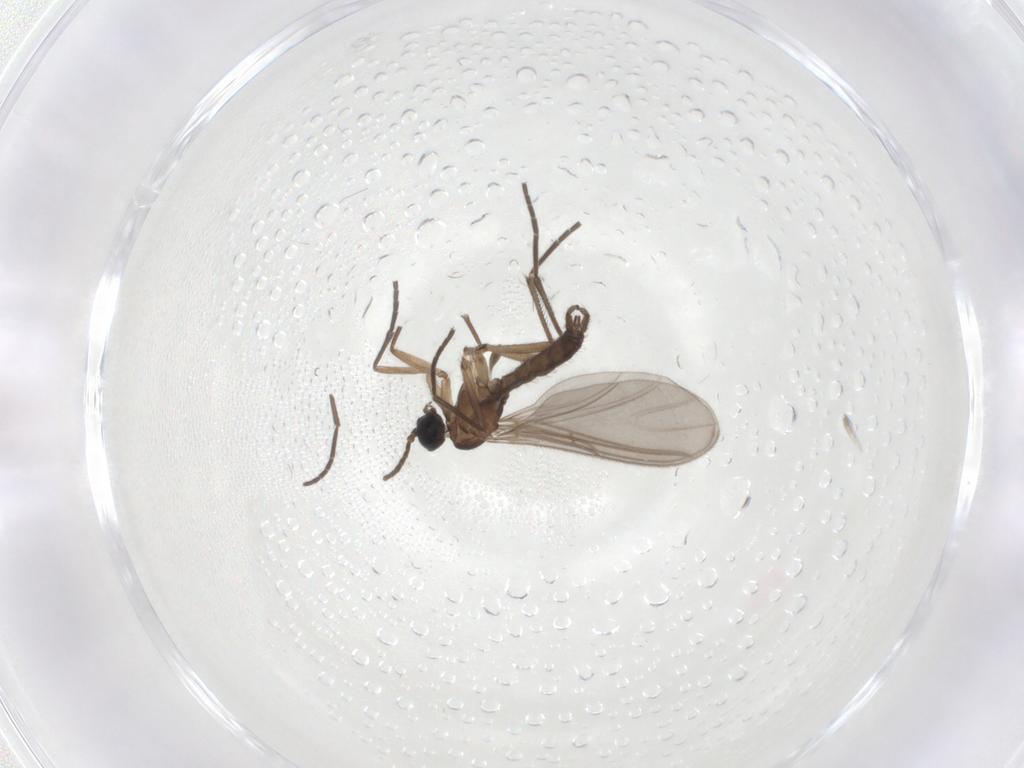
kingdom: Animalia
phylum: Arthropoda
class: Insecta
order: Diptera
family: Sciaridae
